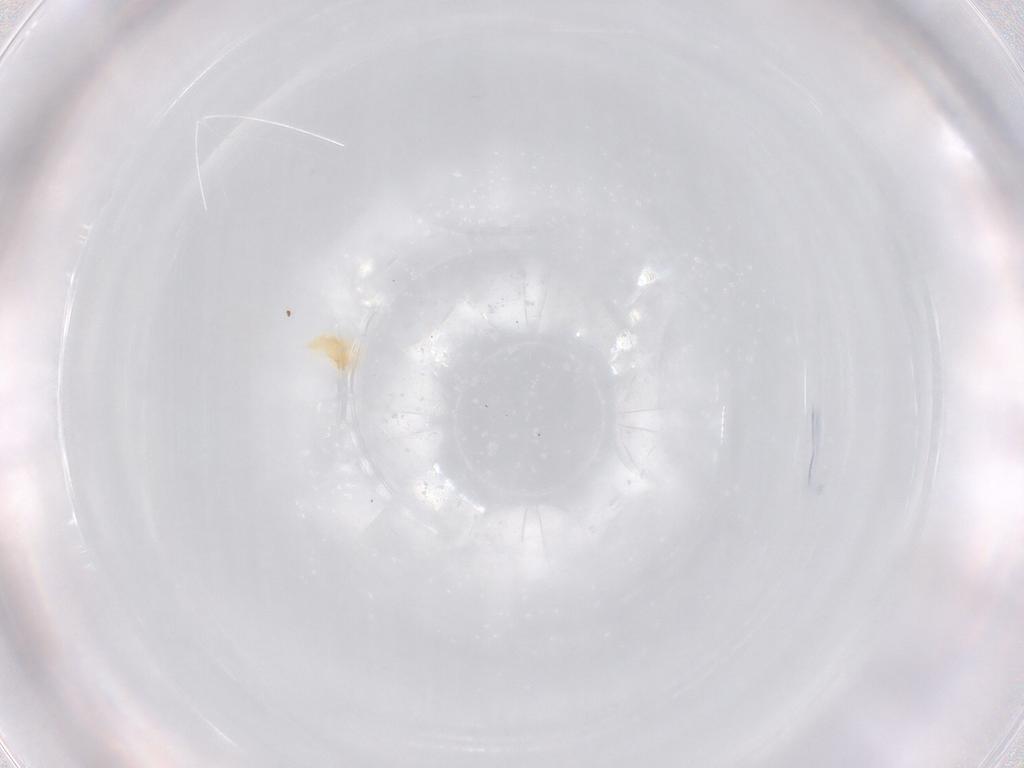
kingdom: Animalia
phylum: Arthropoda
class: Arachnida
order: Trombidiformes
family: Eupodidae
